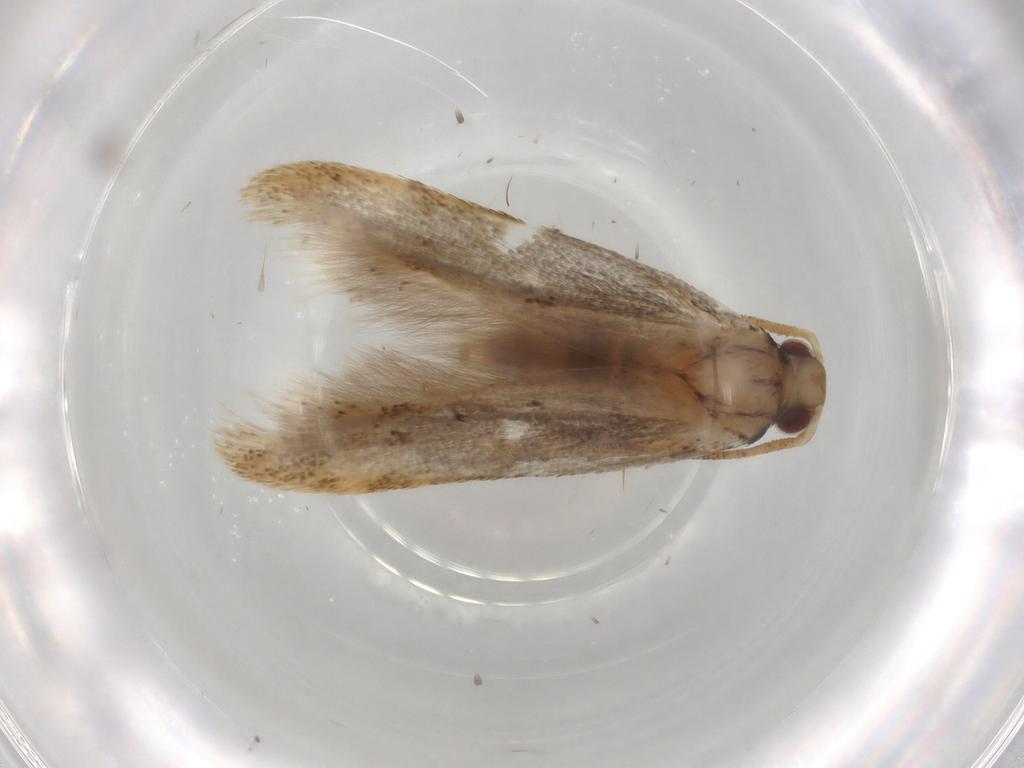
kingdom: Animalia
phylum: Arthropoda
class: Insecta
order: Lepidoptera
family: Gelechiidae
